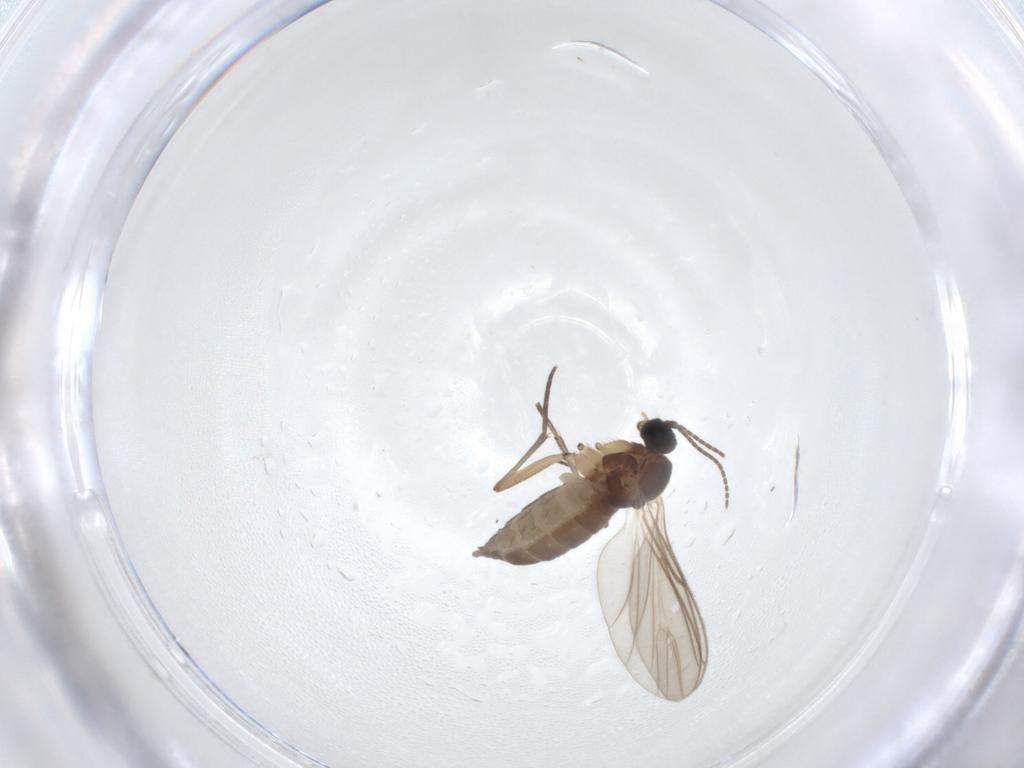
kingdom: Animalia
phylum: Arthropoda
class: Insecta
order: Diptera
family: Sciaridae
